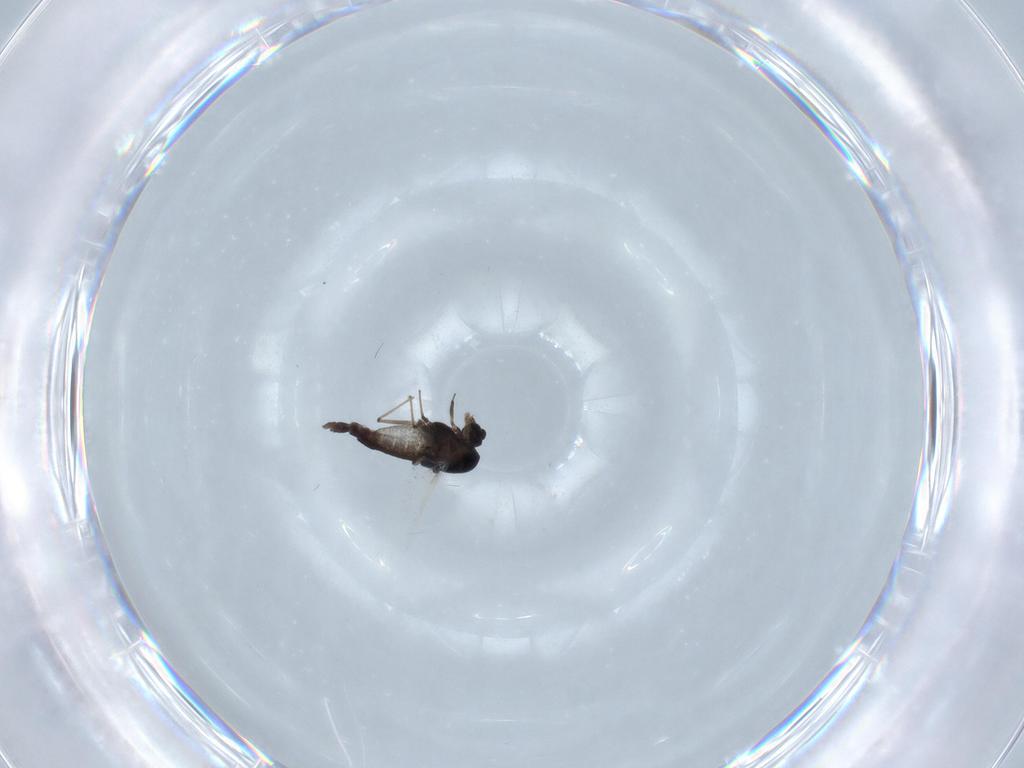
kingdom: Animalia
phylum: Arthropoda
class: Insecta
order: Diptera
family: Chironomidae
